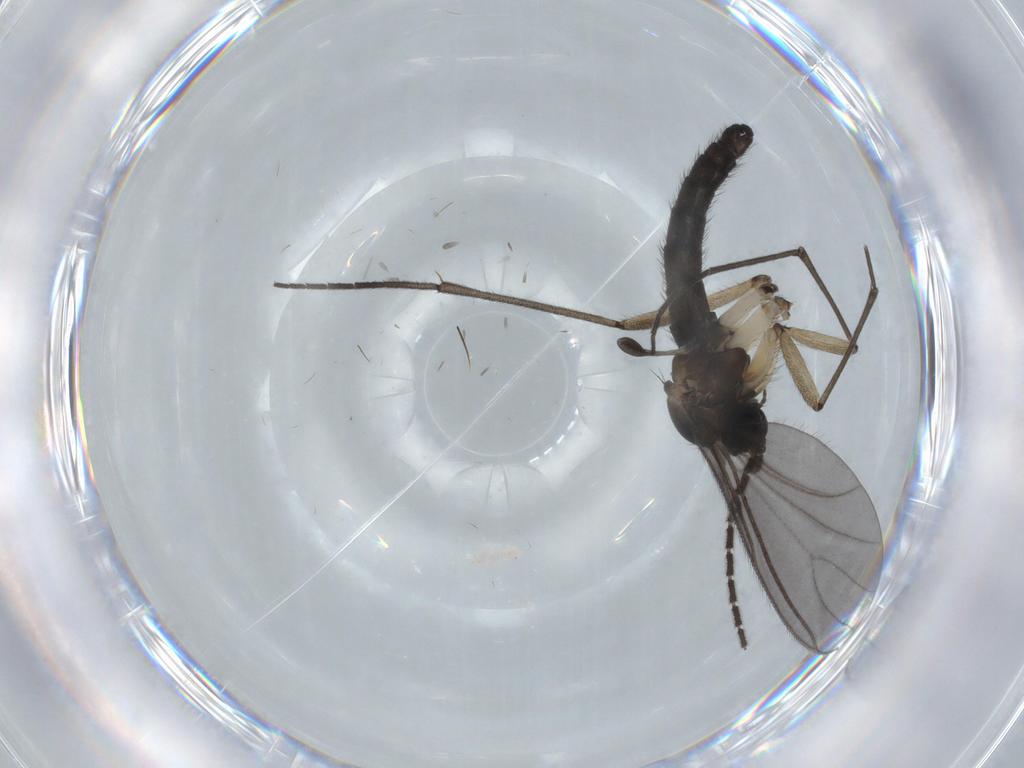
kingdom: Animalia
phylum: Arthropoda
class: Insecta
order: Diptera
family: Sciaridae
